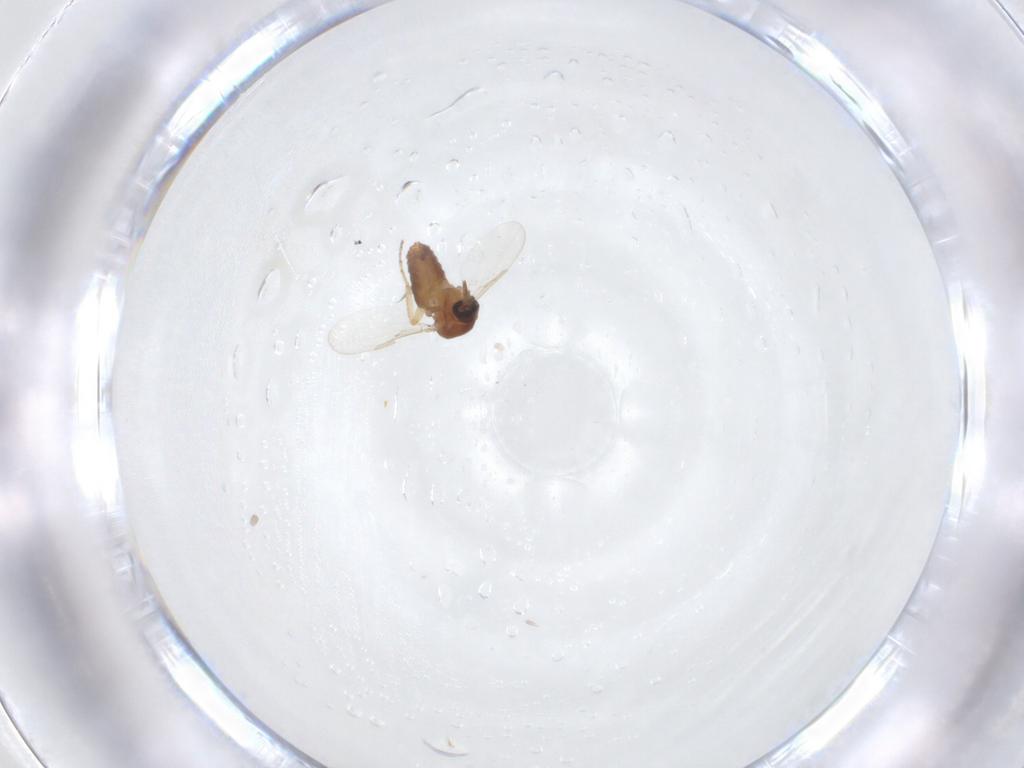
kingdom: Animalia
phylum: Arthropoda
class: Insecta
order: Diptera
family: Ceratopogonidae
